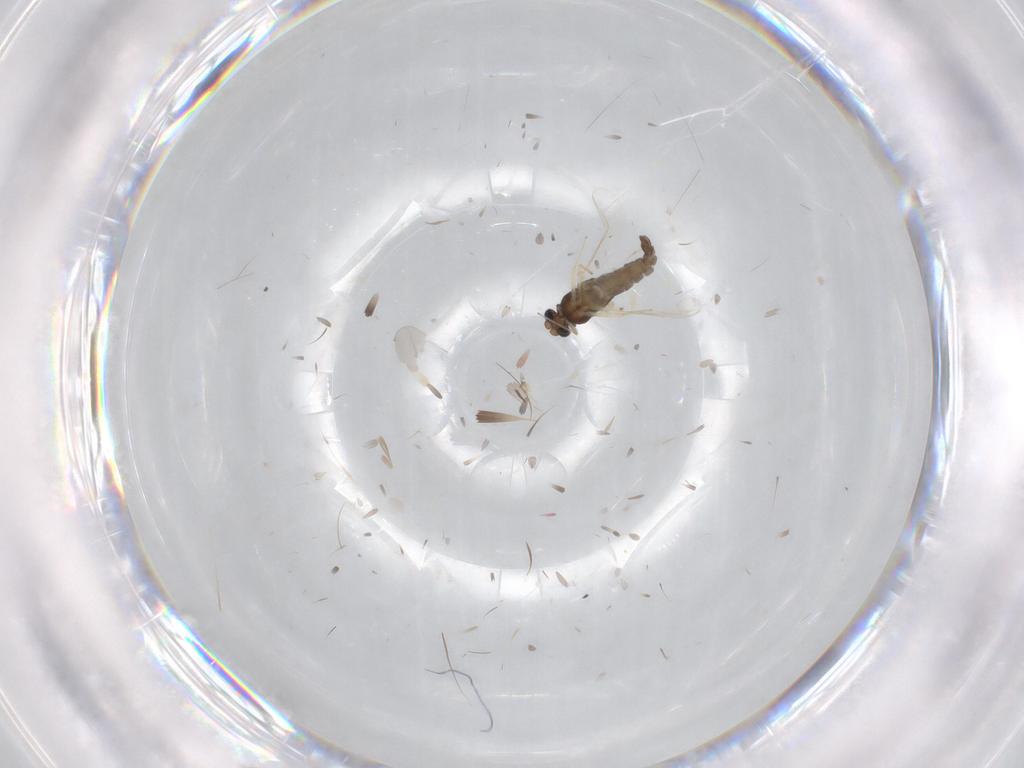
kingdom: Animalia
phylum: Arthropoda
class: Insecta
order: Diptera
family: Chironomidae
